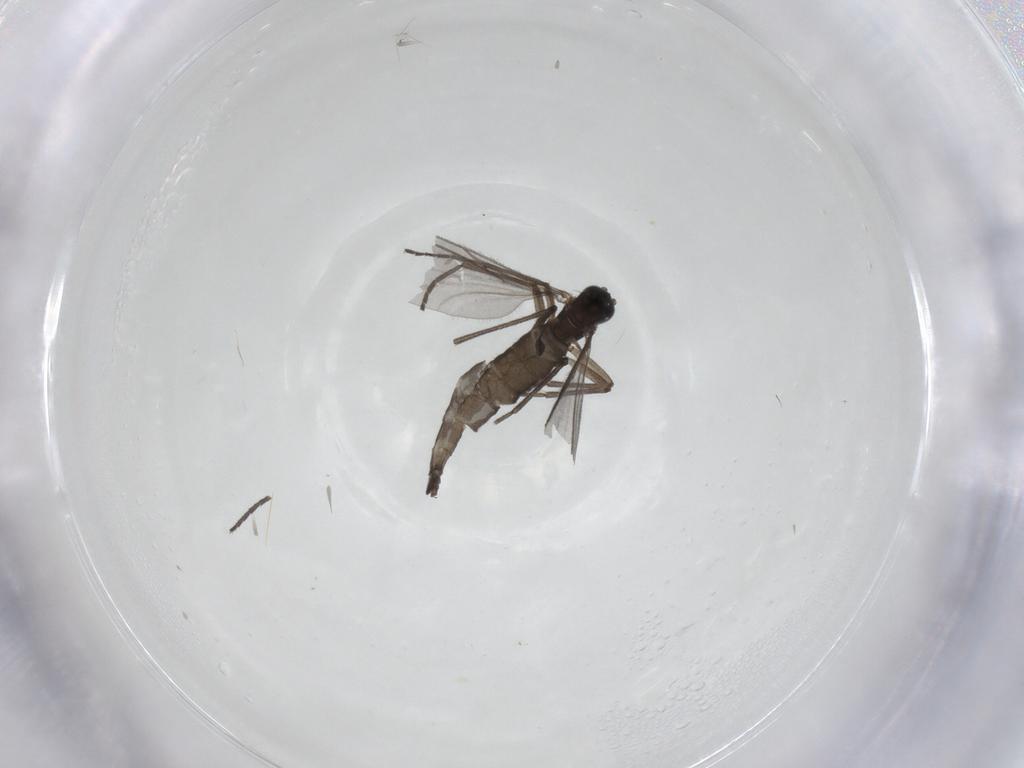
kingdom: Animalia
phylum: Arthropoda
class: Insecta
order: Diptera
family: Sciaridae
